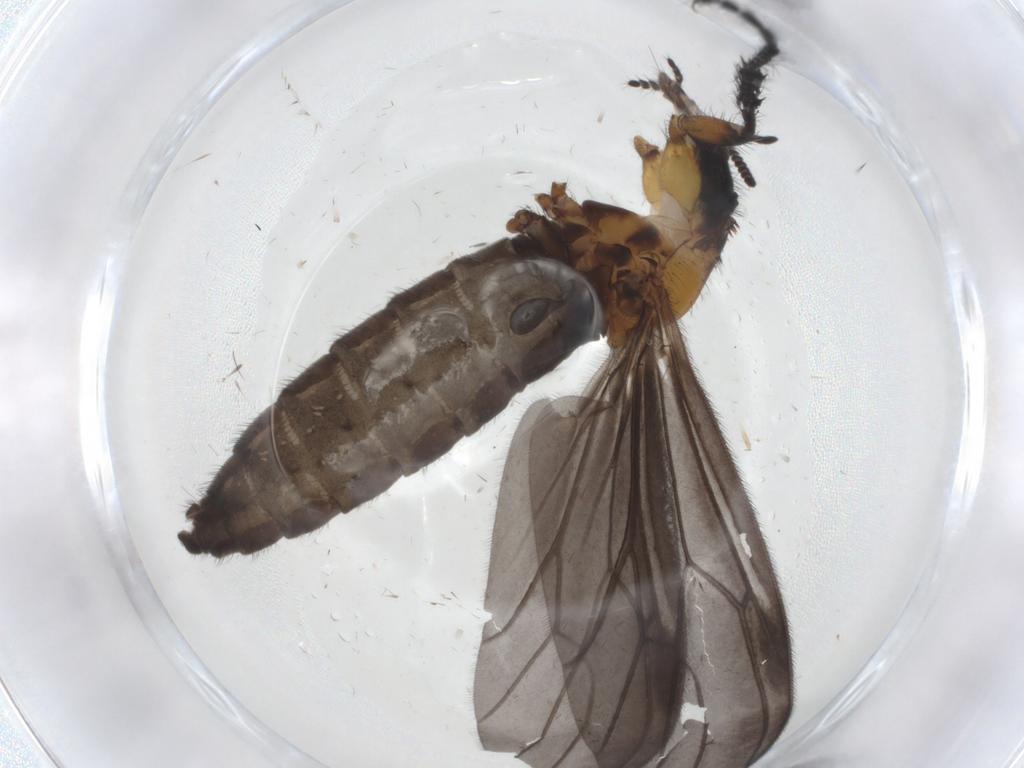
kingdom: Animalia
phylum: Arthropoda
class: Insecta
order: Diptera
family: Bibionidae
